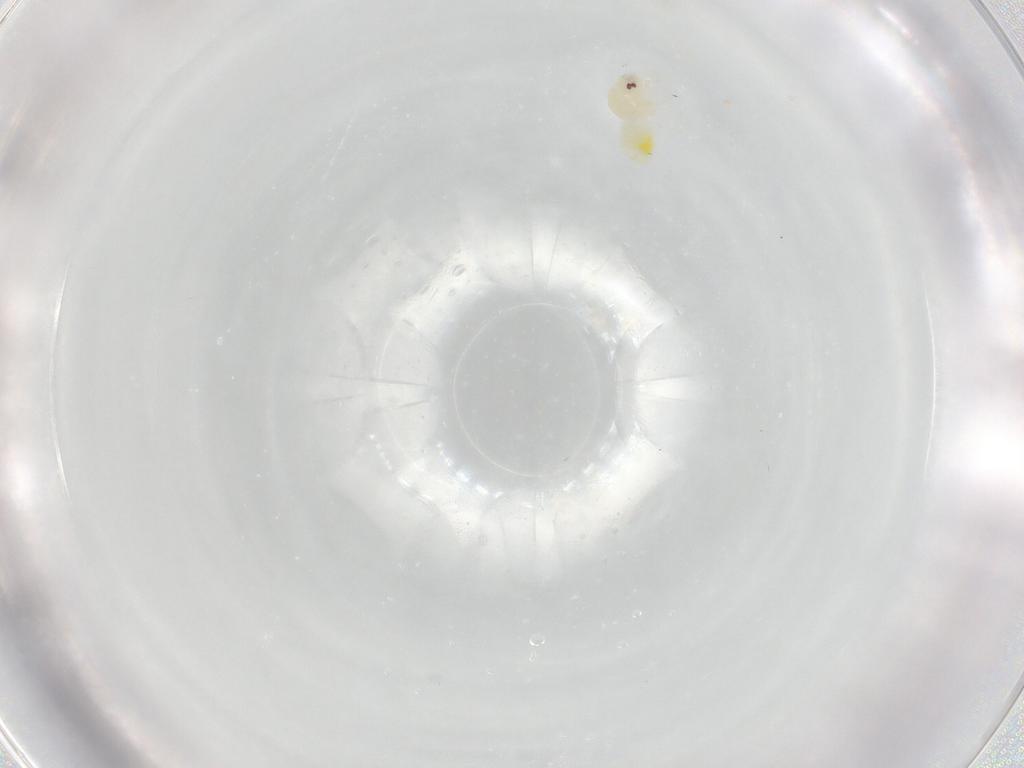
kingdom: Animalia
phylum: Arthropoda
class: Insecta
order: Hemiptera
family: Aleyrodidae
